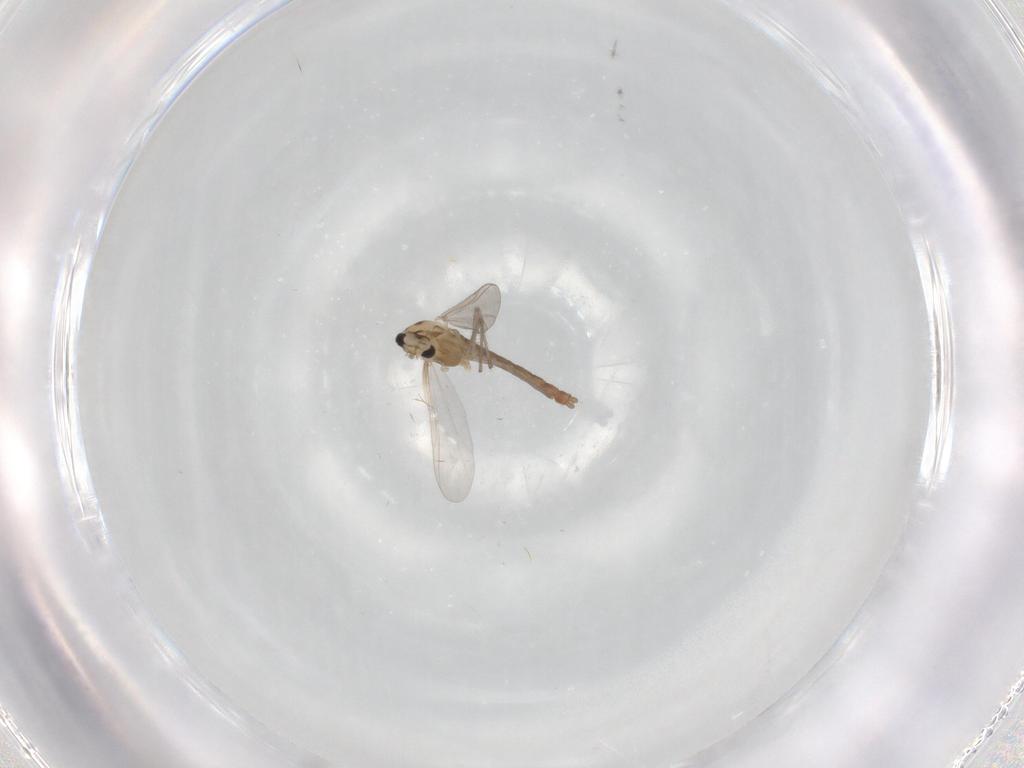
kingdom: Animalia
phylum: Arthropoda
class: Insecta
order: Diptera
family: Chironomidae
